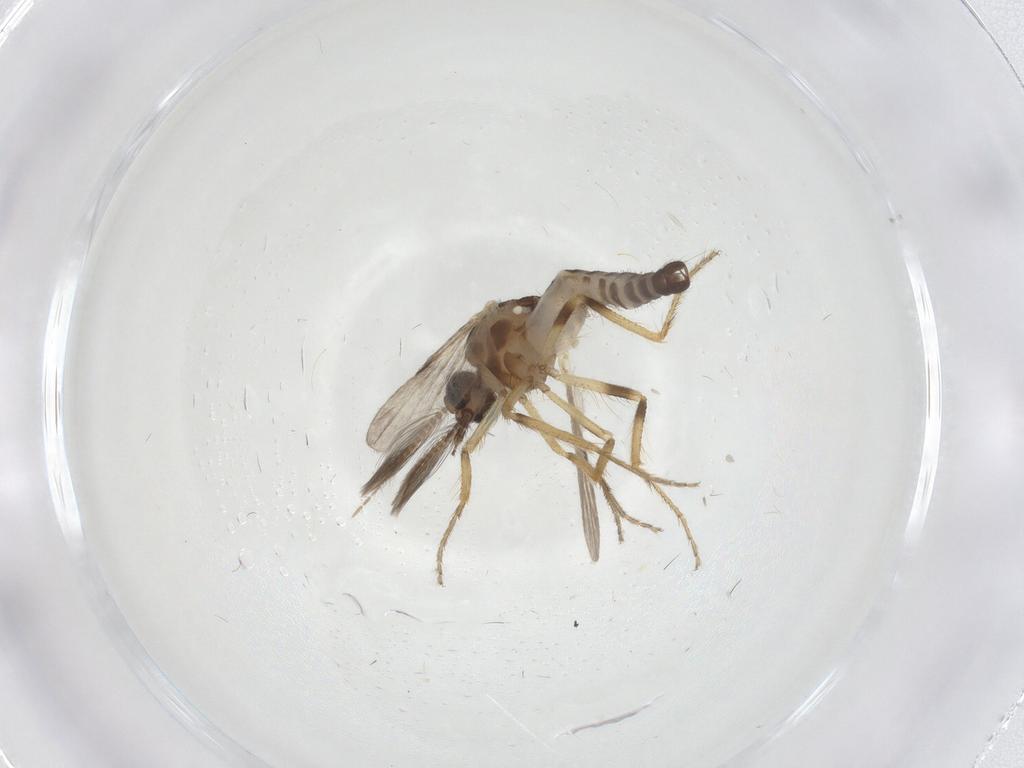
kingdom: Animalia
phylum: Arthropoda
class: Insecta
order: Diptera
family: Ceratopogonidae
